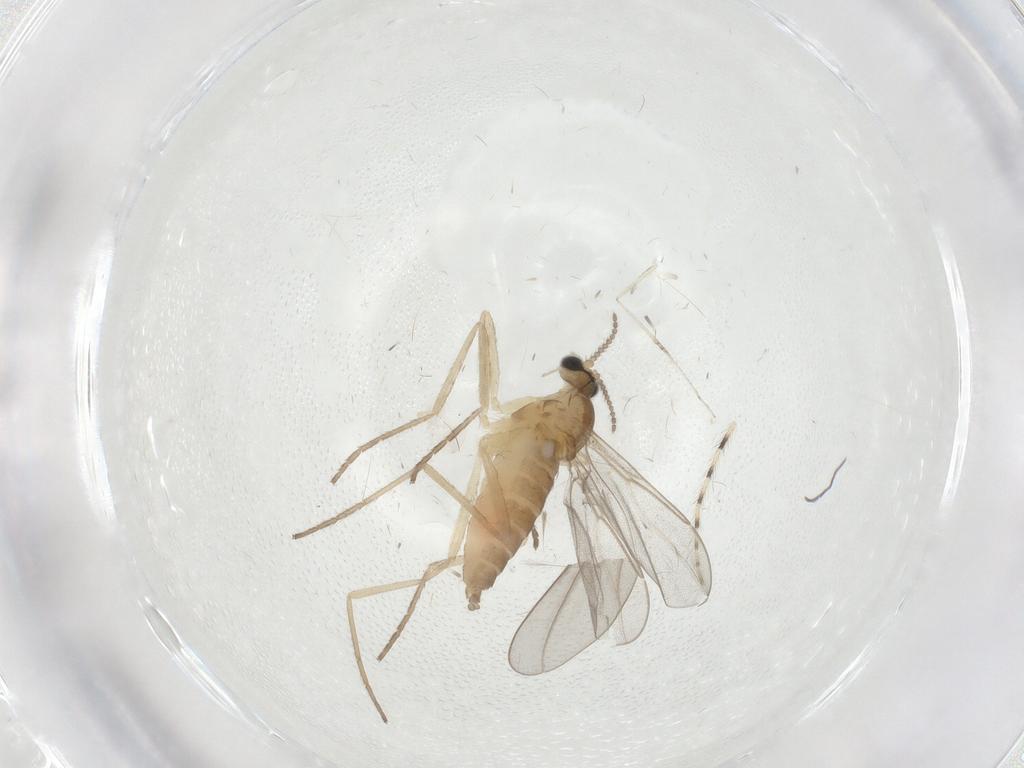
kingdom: Animalia
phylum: Arthropoda
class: Insecta
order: Diptera
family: Cecidomyiidae
